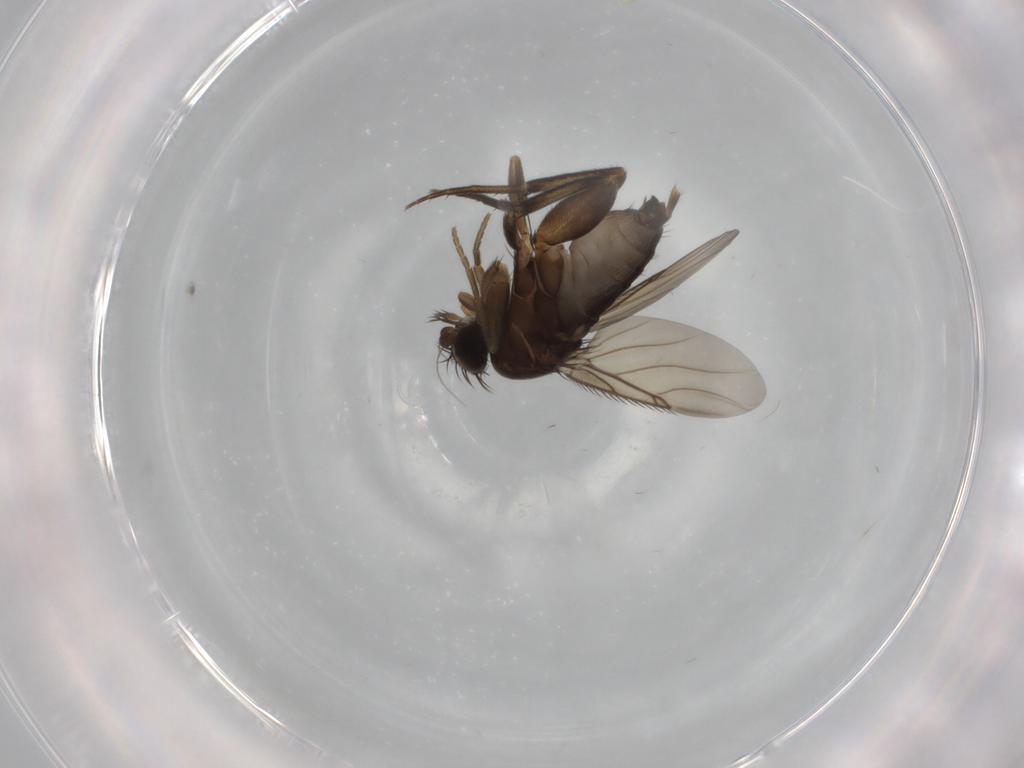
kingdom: Animalia
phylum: Arthropoda
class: Insecta
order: Diptera
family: Phoridae
